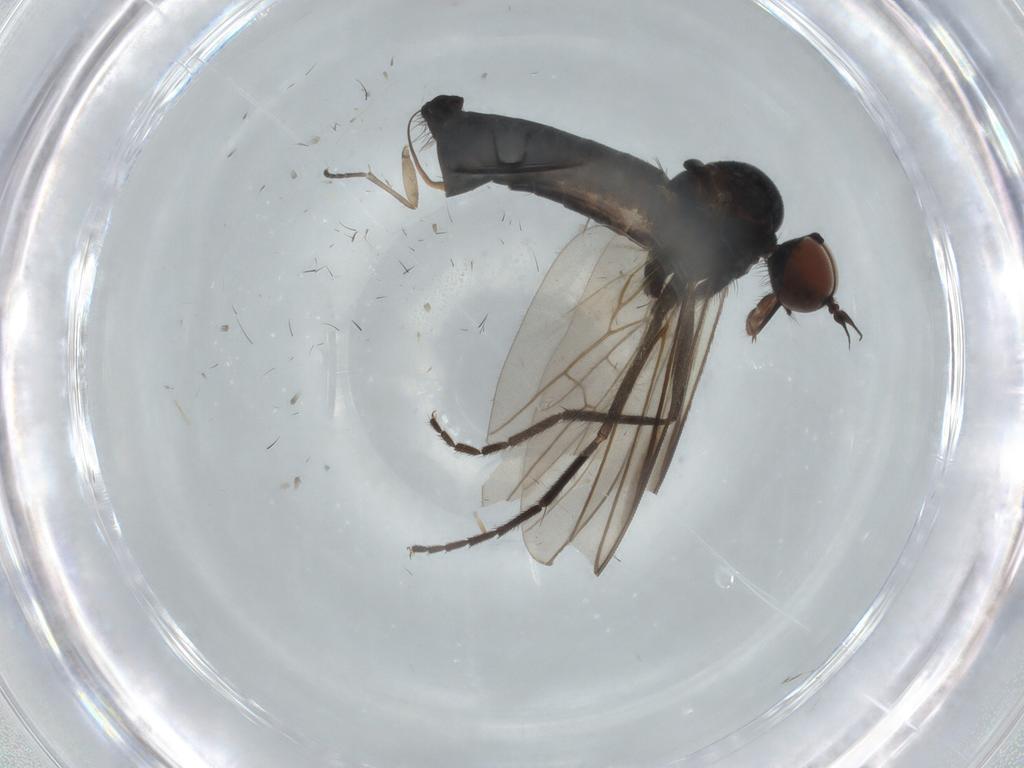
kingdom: Animalia
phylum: Arthropoda
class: Insecta
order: Diptera
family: Empididae
